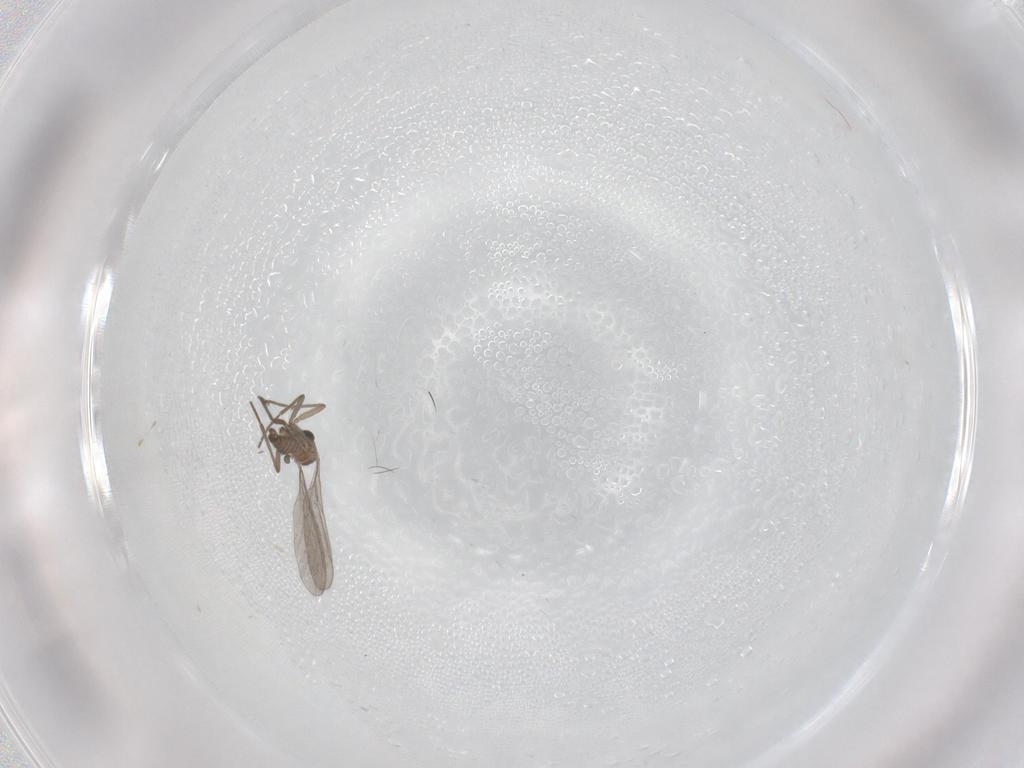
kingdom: Animalia
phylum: Arthropoda
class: Insecta
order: Diptera
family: Sciaridae
